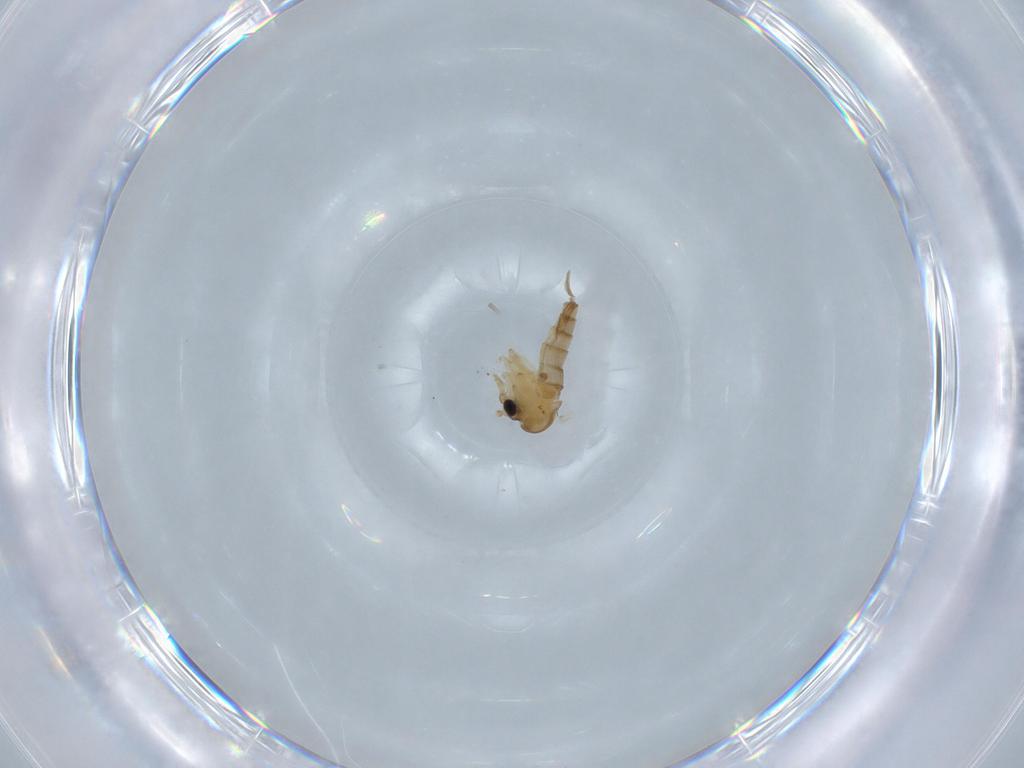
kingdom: Animalia
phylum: Arthropoda
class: Insecta
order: Diptera
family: Psychodidae
